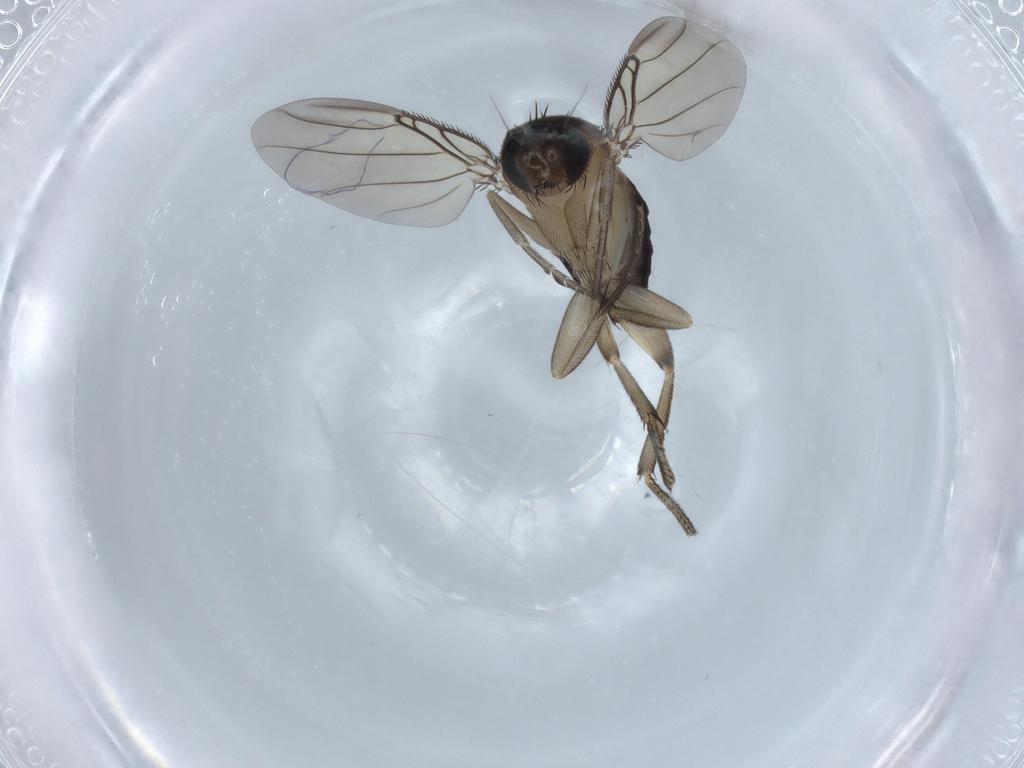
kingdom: Animalia
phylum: Arthropoda
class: Insecta
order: Diptera
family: Phoridae
